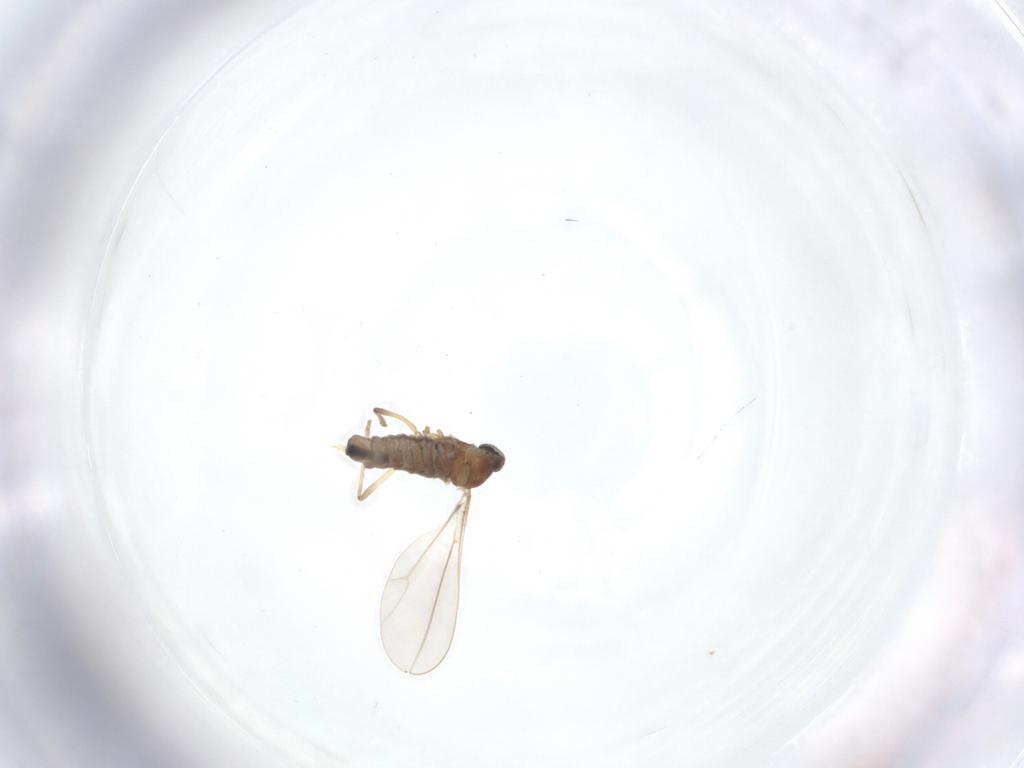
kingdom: Animalia
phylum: Arthropoda
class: Insecta
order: Diptera
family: Cecidomyiidae
